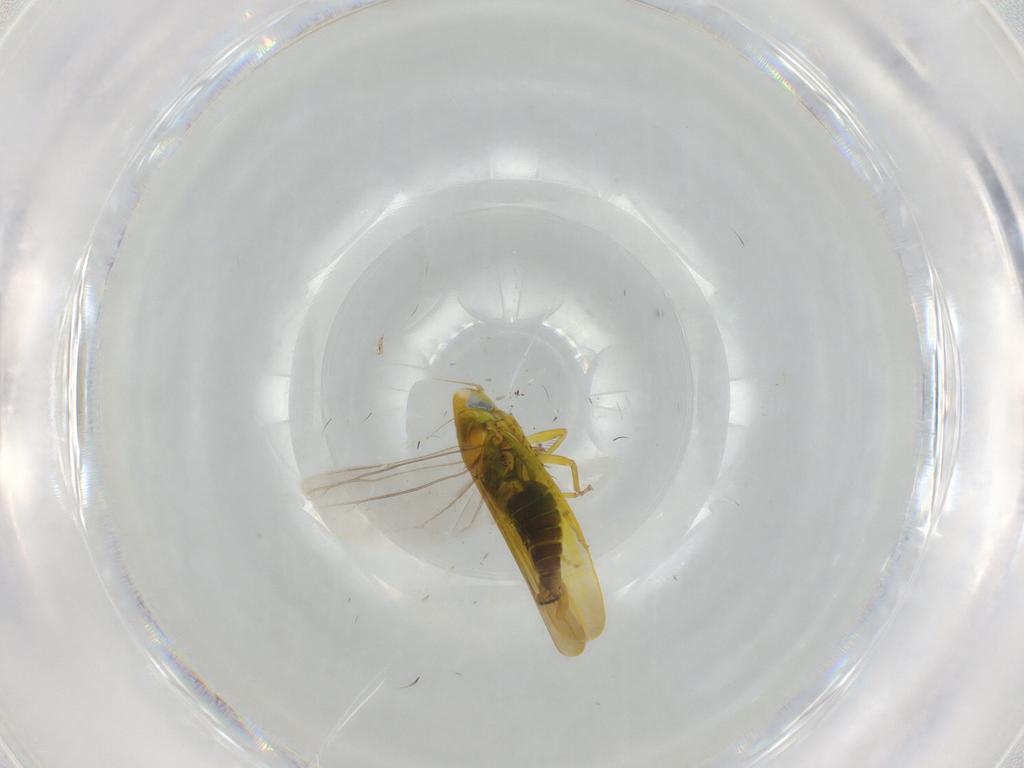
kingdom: Animalia
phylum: Arthropoda
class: Insecta
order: Hemiptera
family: Cicadellidae
